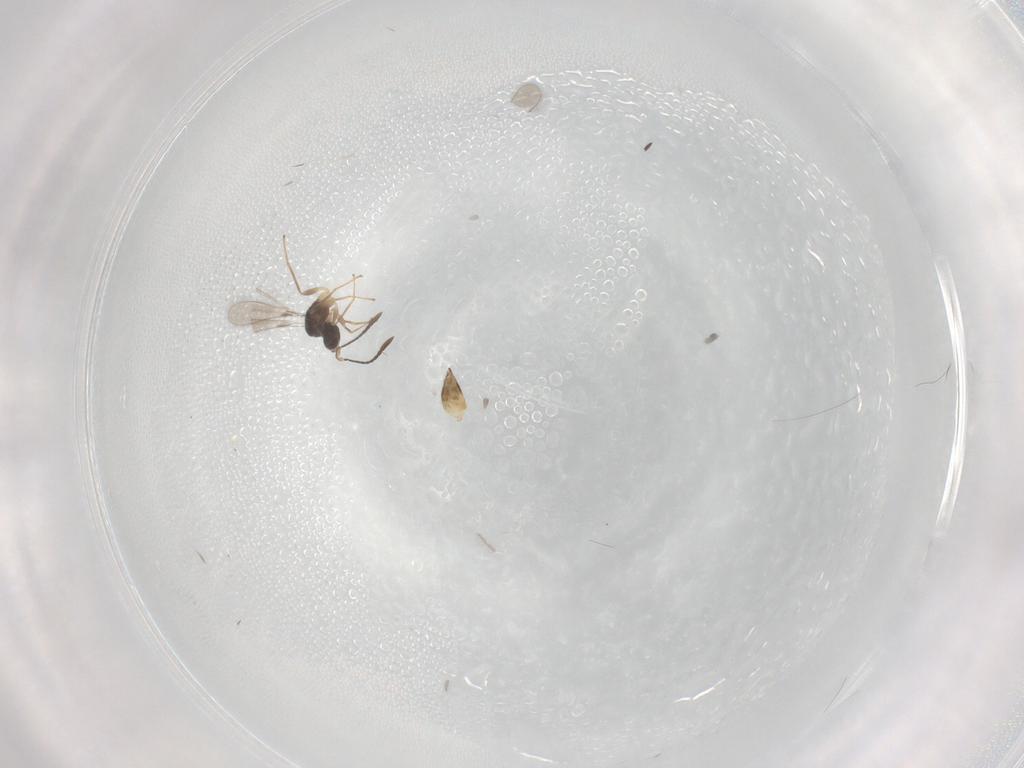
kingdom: Animalia
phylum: Arthropoda
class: Insecta
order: Hymenoptera
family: Mymaridae
